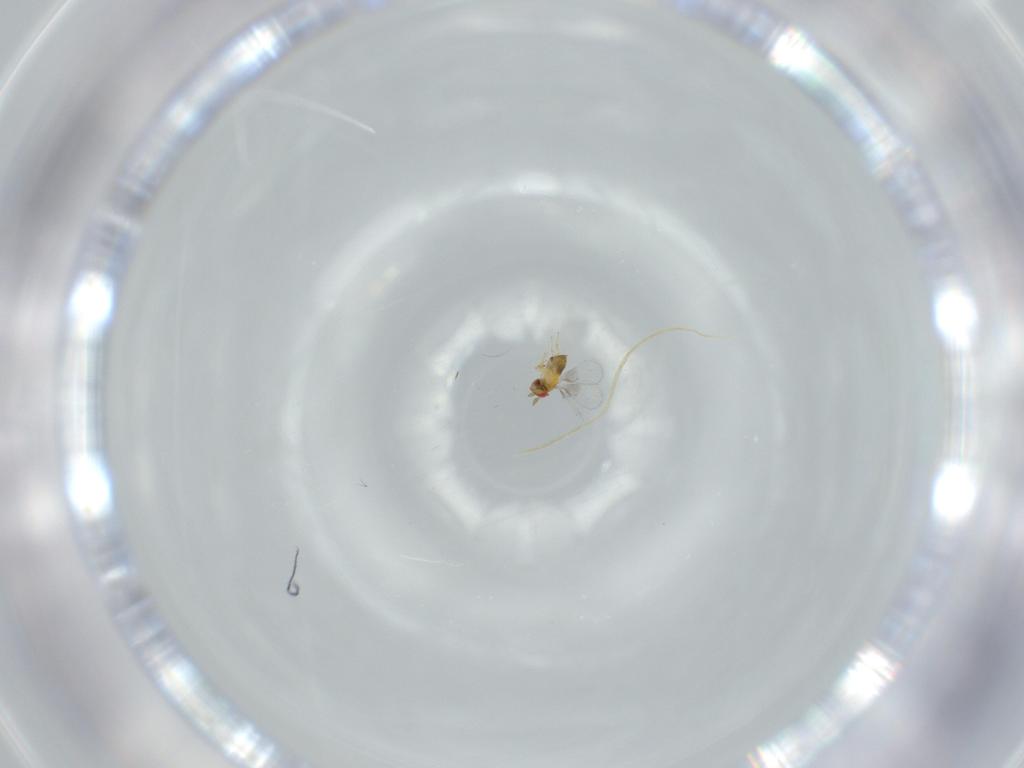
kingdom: Animalia
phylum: Arthropoda
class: Insecta
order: Hymenoptera
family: Trichogrammatidae
